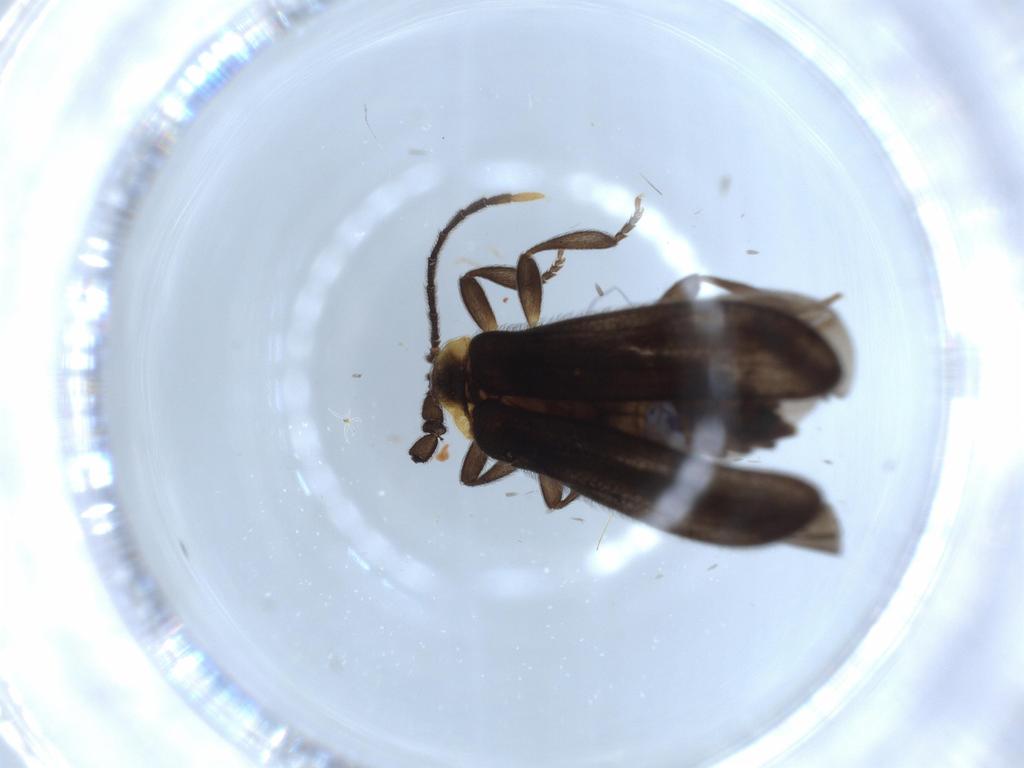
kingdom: Animalia
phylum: Arthropoda
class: Insecta
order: Coleoptera
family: Lycidae
